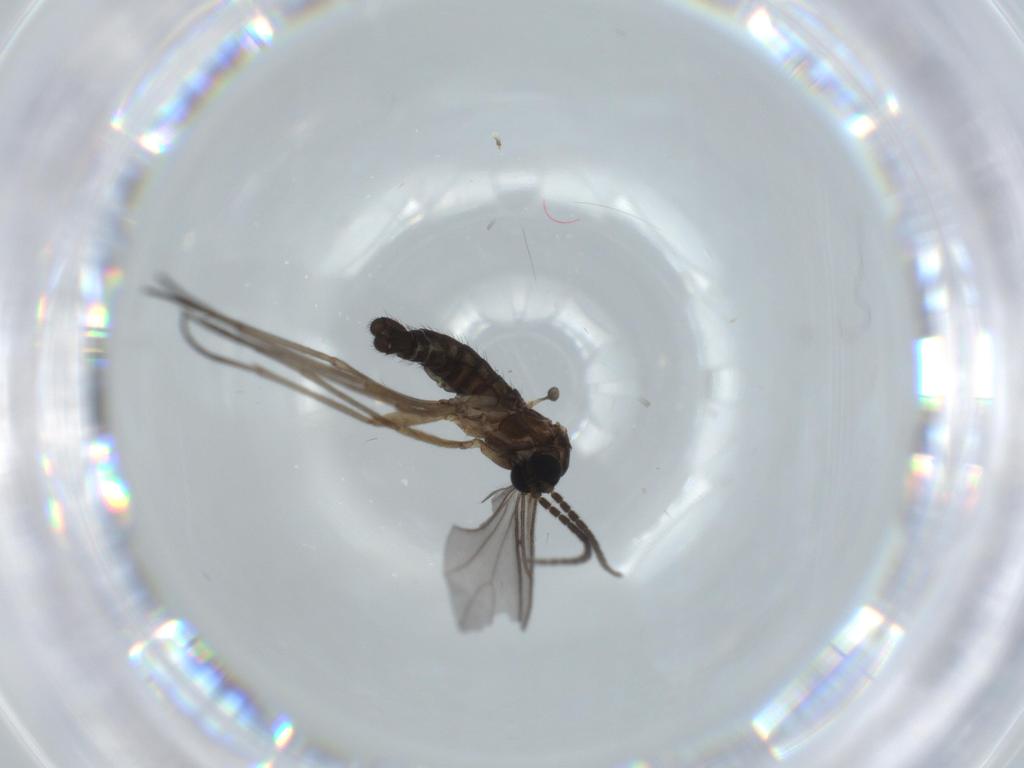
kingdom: Animalia
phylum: Arthropoda
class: Insecta
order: Diptera
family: Sciaridae
